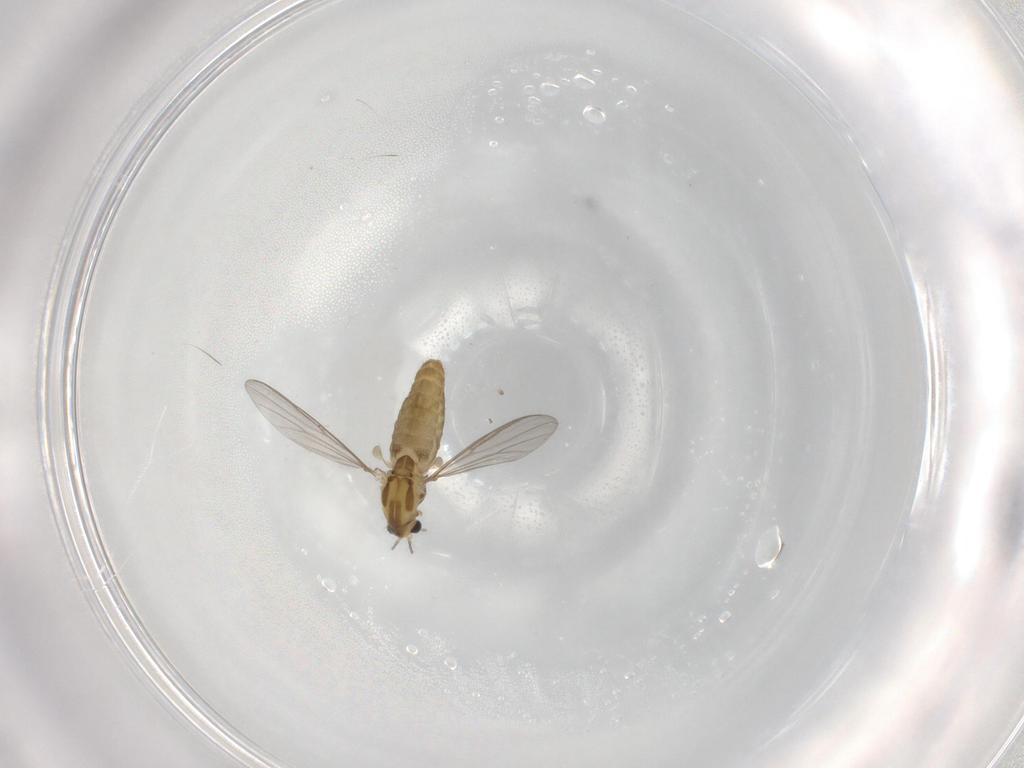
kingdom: Animalia
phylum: Arthropoda
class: Insecta
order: Diptera
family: Chironomidae
